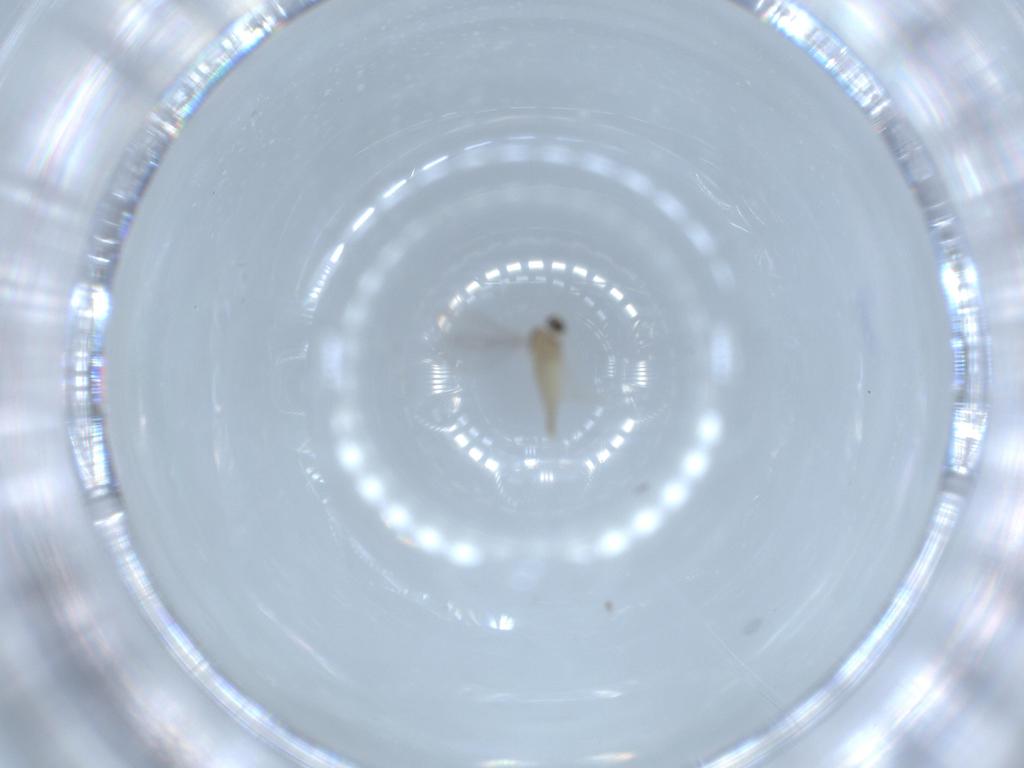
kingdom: Animalia
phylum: Arthropoda
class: Insecta
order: Diptera
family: Cecidomyiidae
